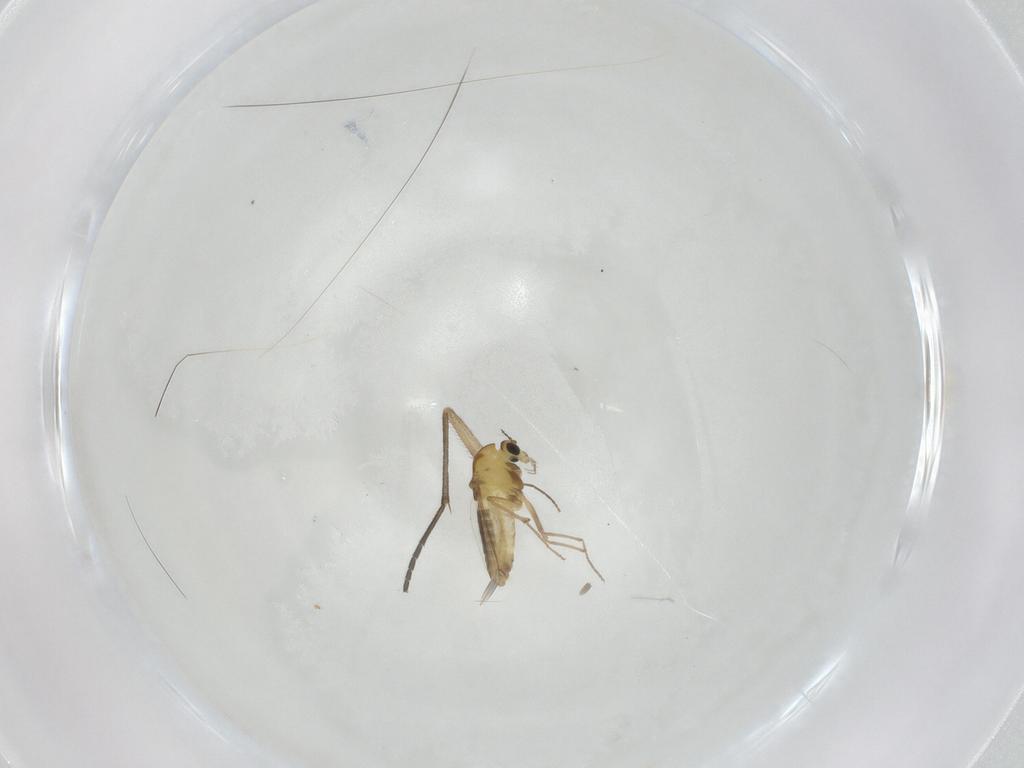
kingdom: Animalia
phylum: Arthropoda
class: Insecta
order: Diptera
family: Chironomidae
